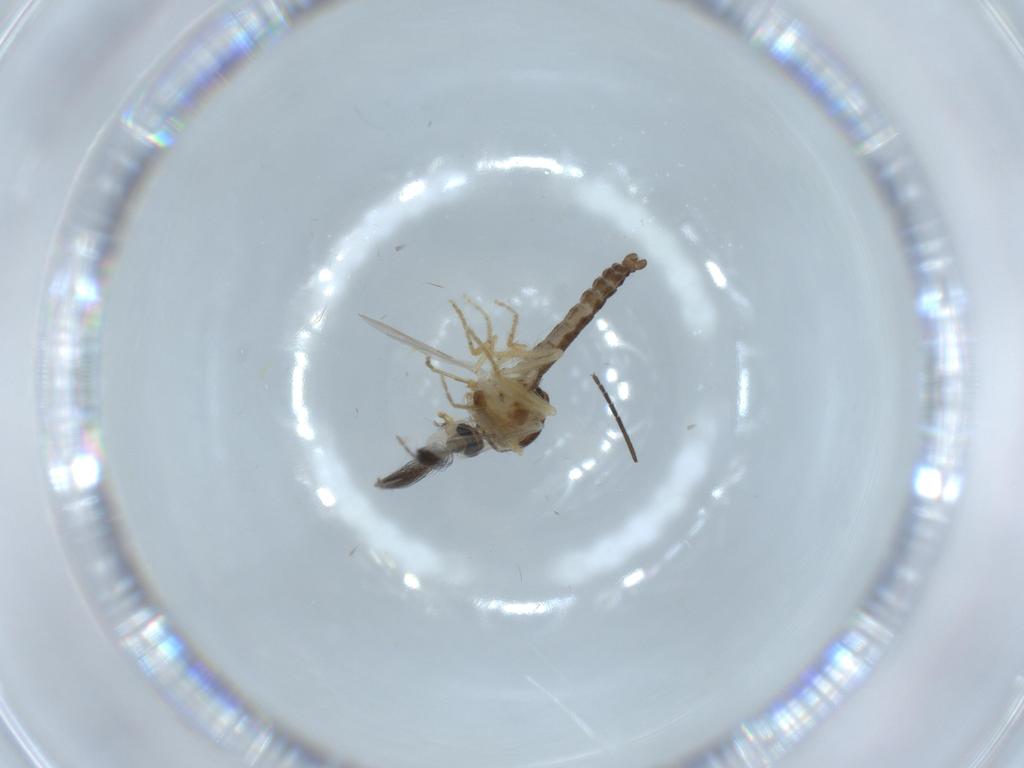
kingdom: Animalia
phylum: Arthropoda
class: Insecta
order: Diptera
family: Ceratopogonidae
